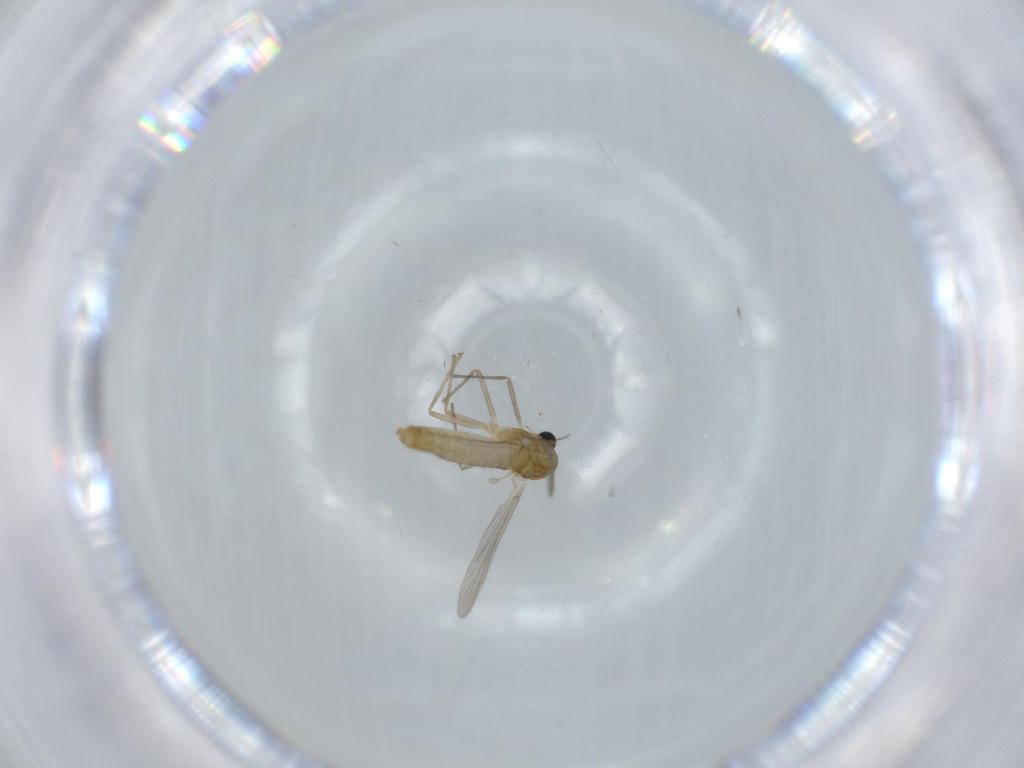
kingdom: Animalia
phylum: Arthropoda
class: Insecta
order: Diptera
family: Chironomidae
